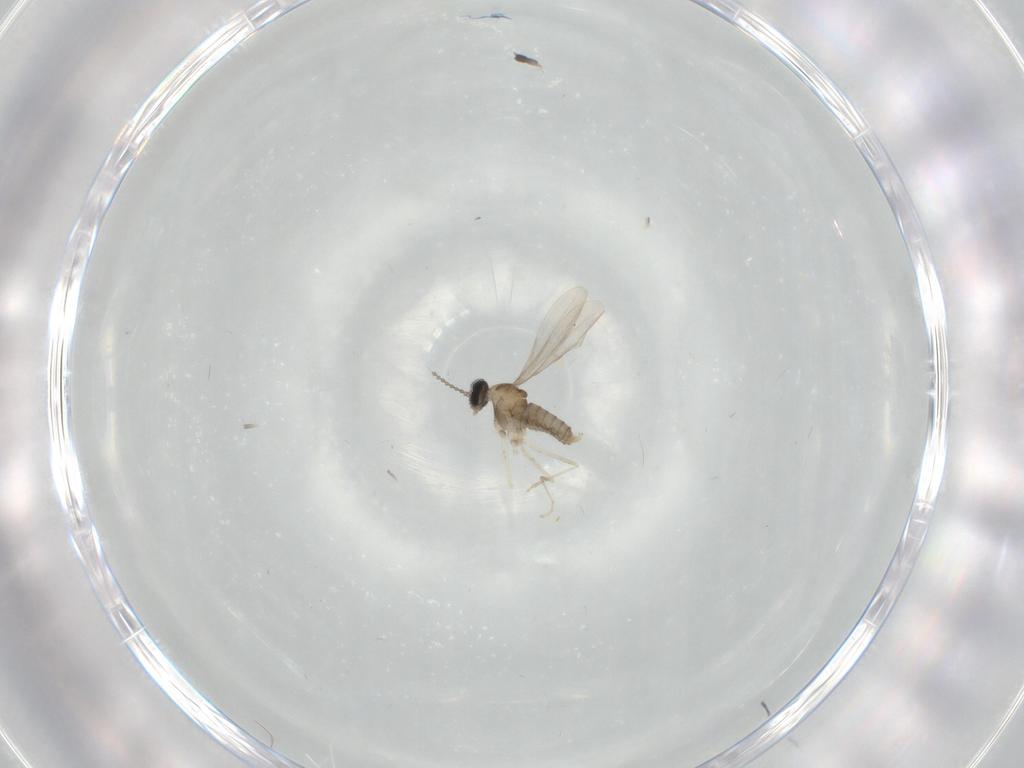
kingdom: Animalia
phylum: Arthropoda
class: Insecta
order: Diptera
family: Cecidomyiidae
